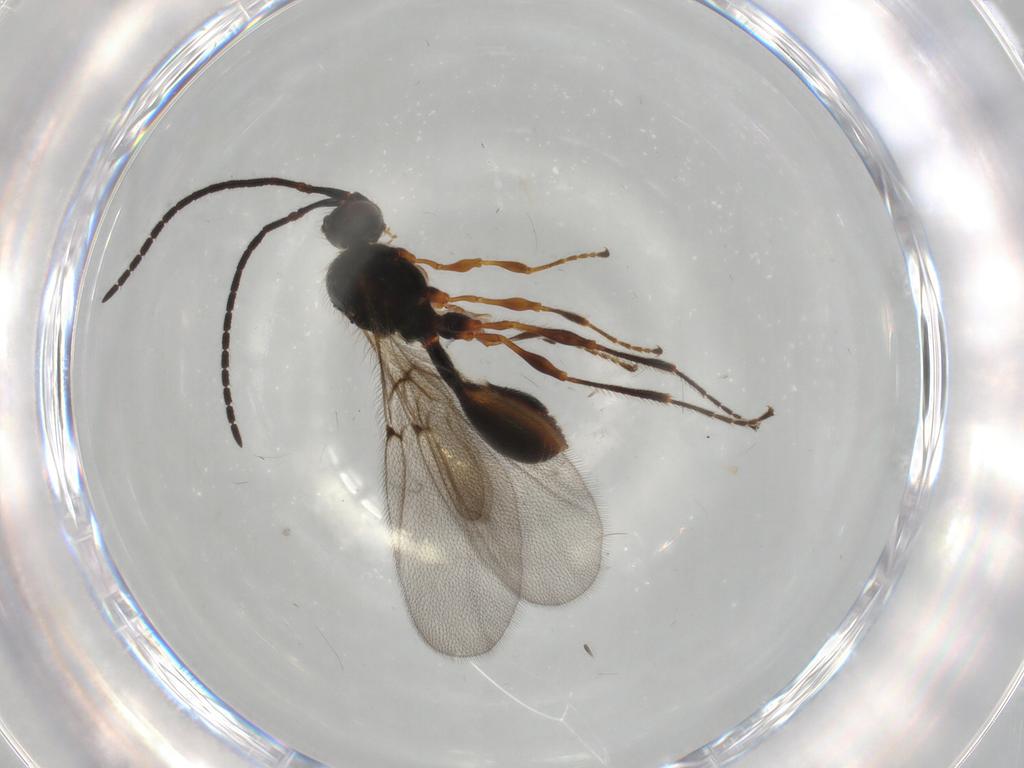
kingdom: Animalia
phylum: Arthropoda
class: Insecta
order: Hymenoptera
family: Diapriidae
